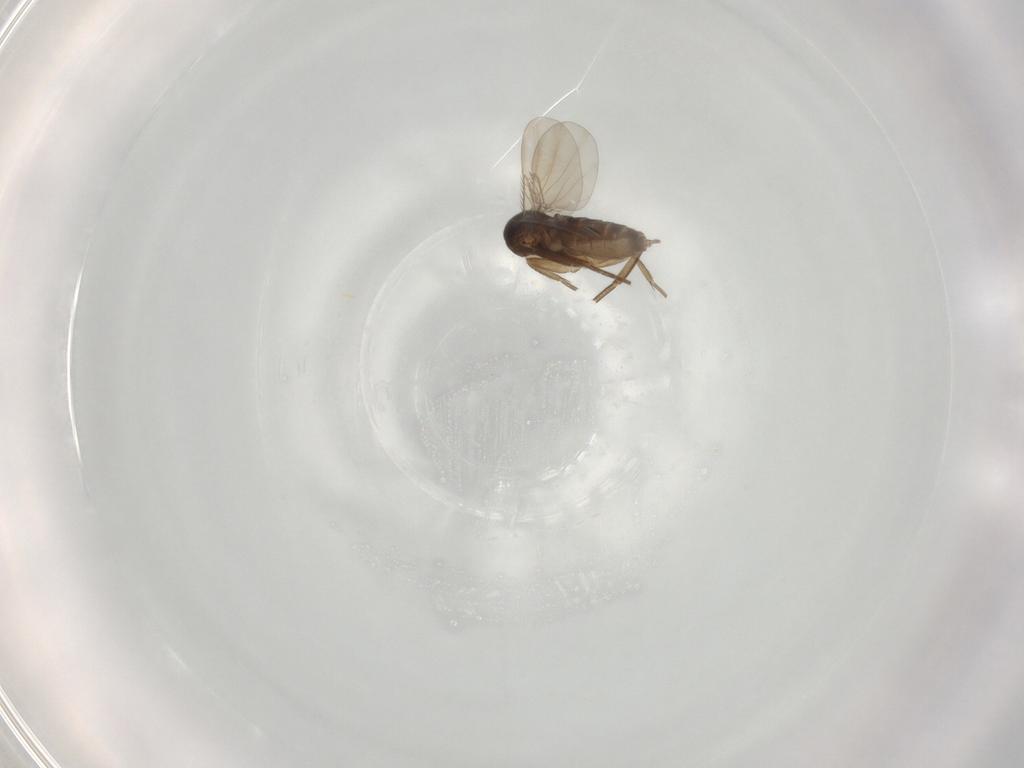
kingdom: Animalia
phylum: Arthropoda
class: Insecta
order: Diptera
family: Phoridae
